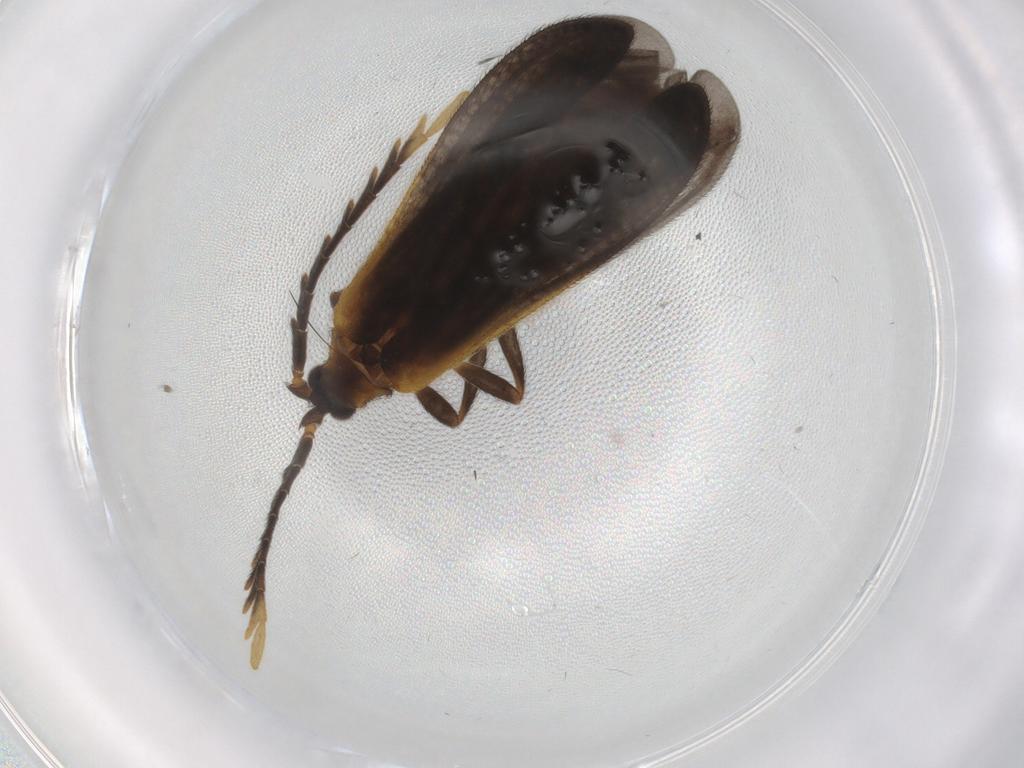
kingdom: Animalia
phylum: Arthropoda
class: Insecta
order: Coleoptera
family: Lycidae
